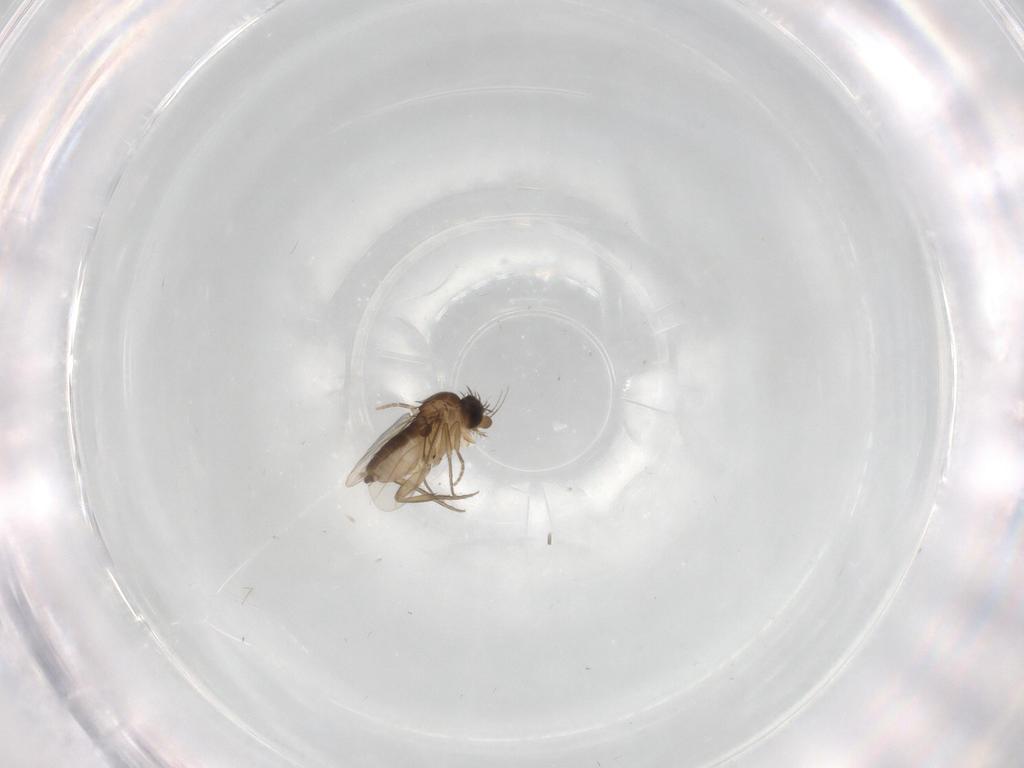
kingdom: Animalia
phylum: Arthropoda
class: Insecta
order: Diptera
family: Phoridae
